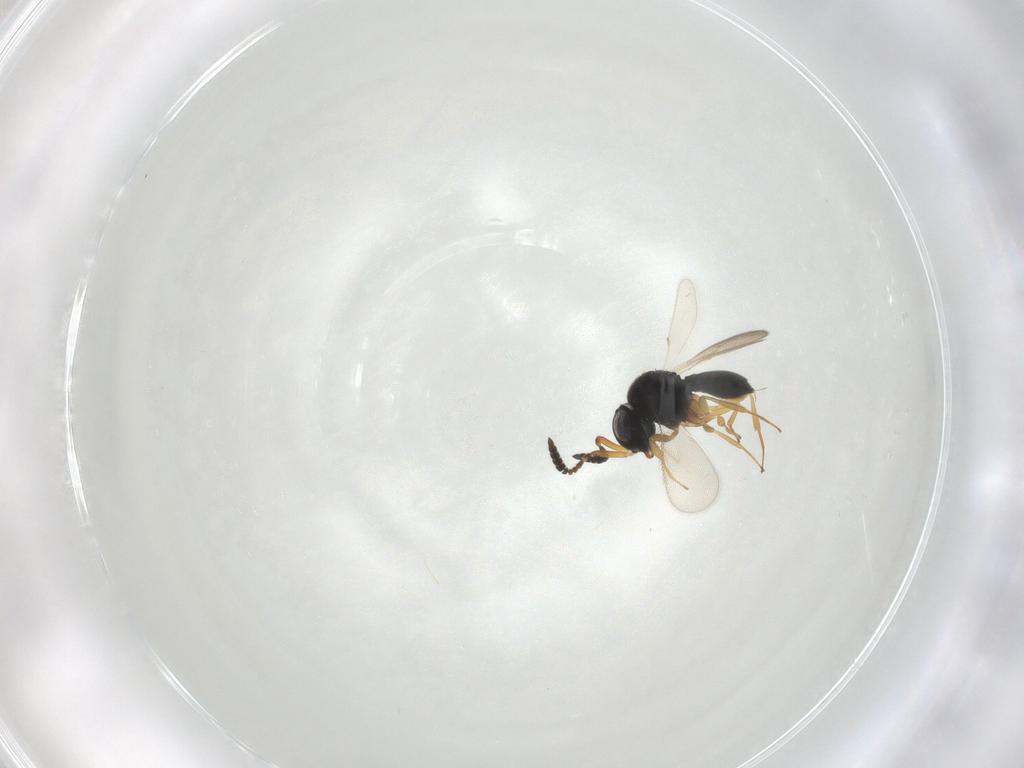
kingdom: Animalia
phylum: Arthropoda
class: Insecta
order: Hymenoptera
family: Scelionidae
